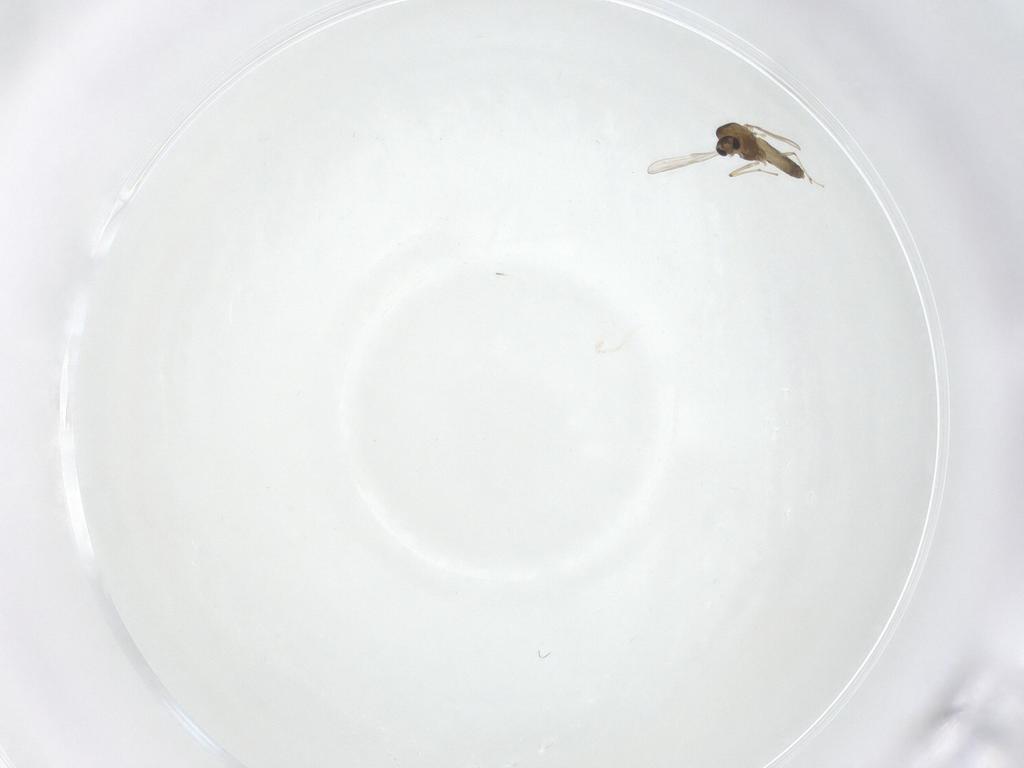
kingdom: Animalia
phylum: Arthropoda
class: Insecta
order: Diptera
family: Chironomidae
